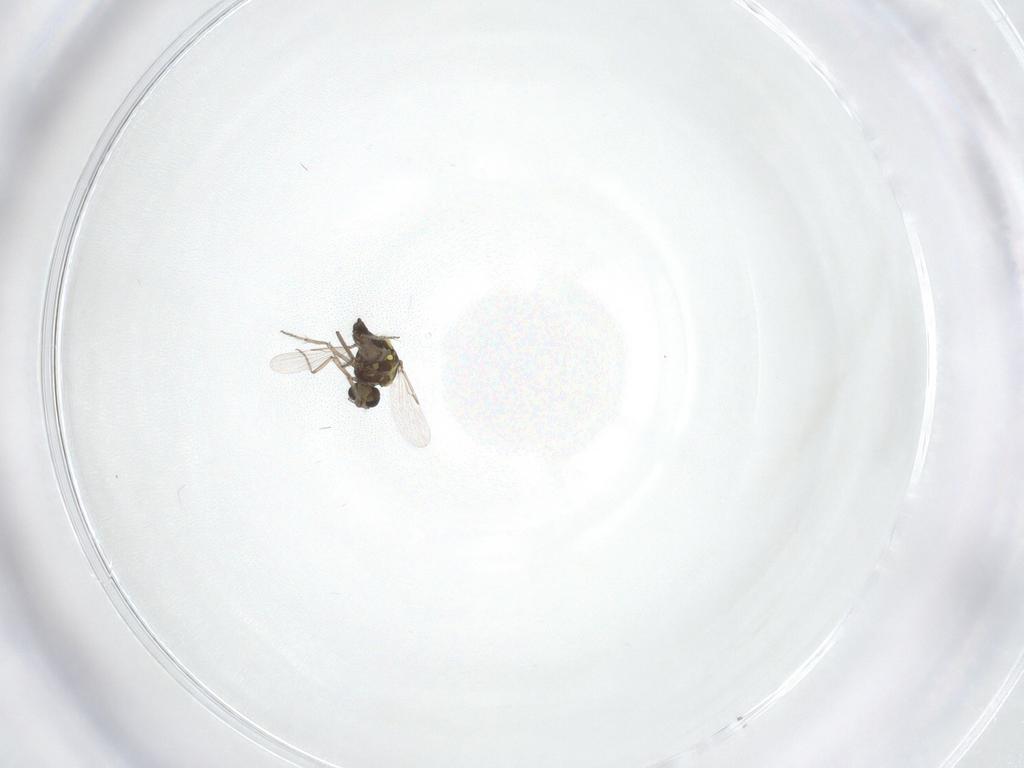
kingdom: Animalia
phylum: Arthropoda
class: Insecta
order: Diptera
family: Ceratopogonidae
